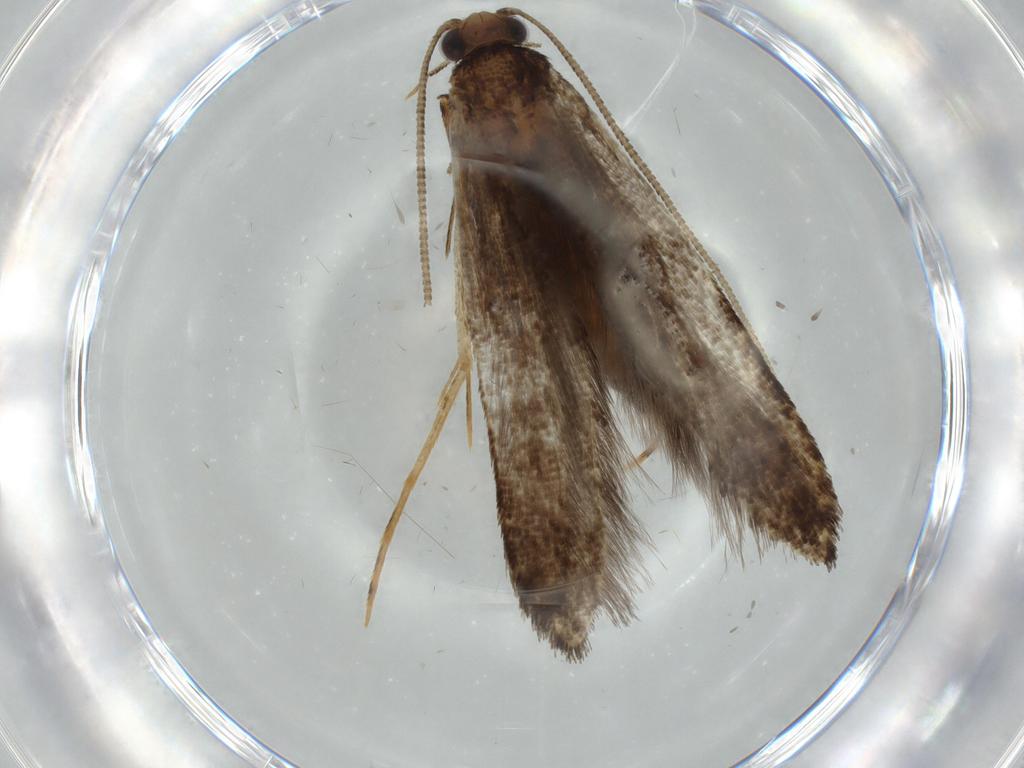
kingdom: Animalia
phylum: Arthropoda
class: Insecta
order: Lepidoptera
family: Tineidae
